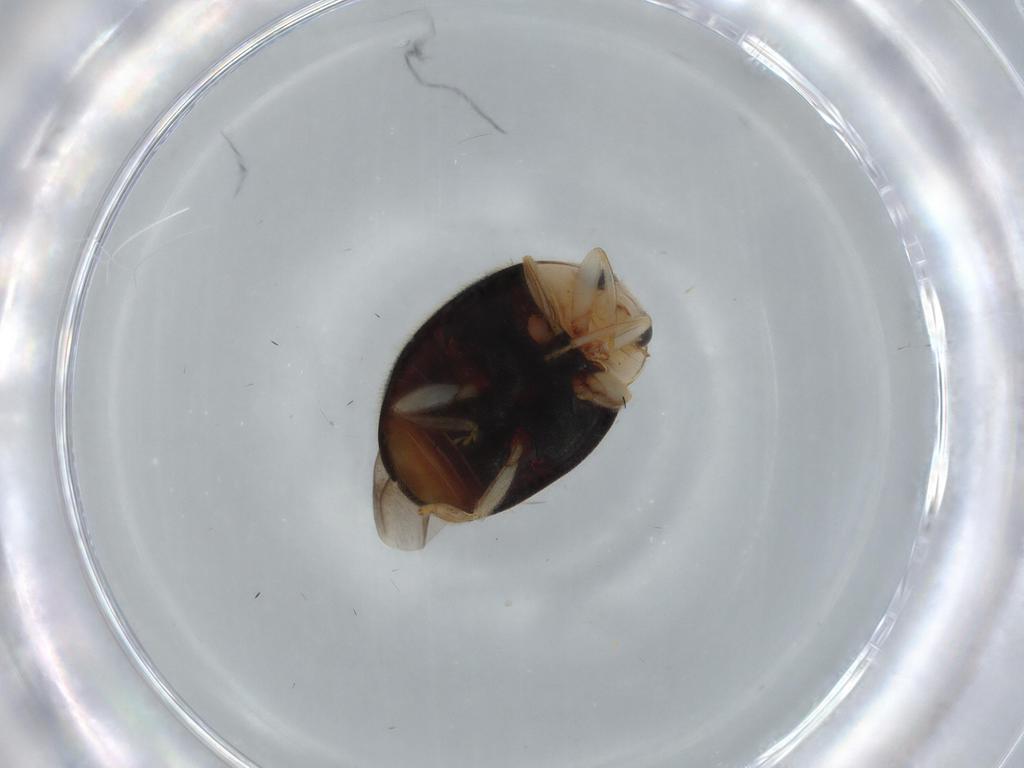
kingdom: Animalia
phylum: Arthropoda
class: Insecta
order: Coleoptera
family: Coccinellidae
